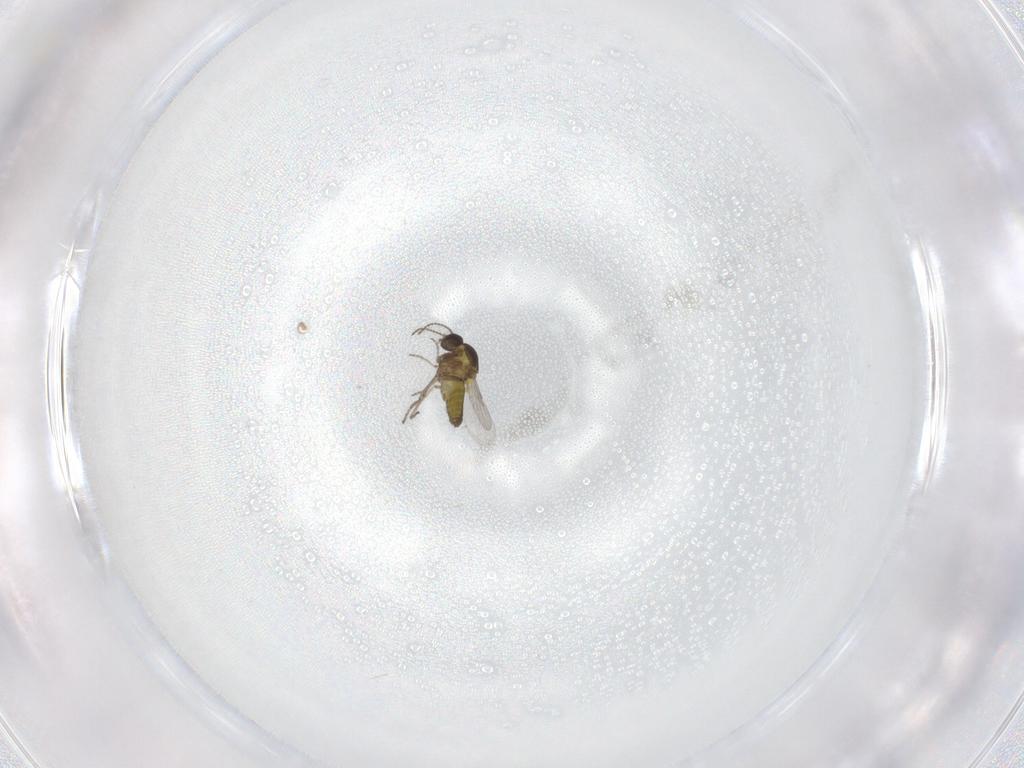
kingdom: Animalia
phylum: Arthropoda
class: Insecta
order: Diptera
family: Ceratopogonidae
